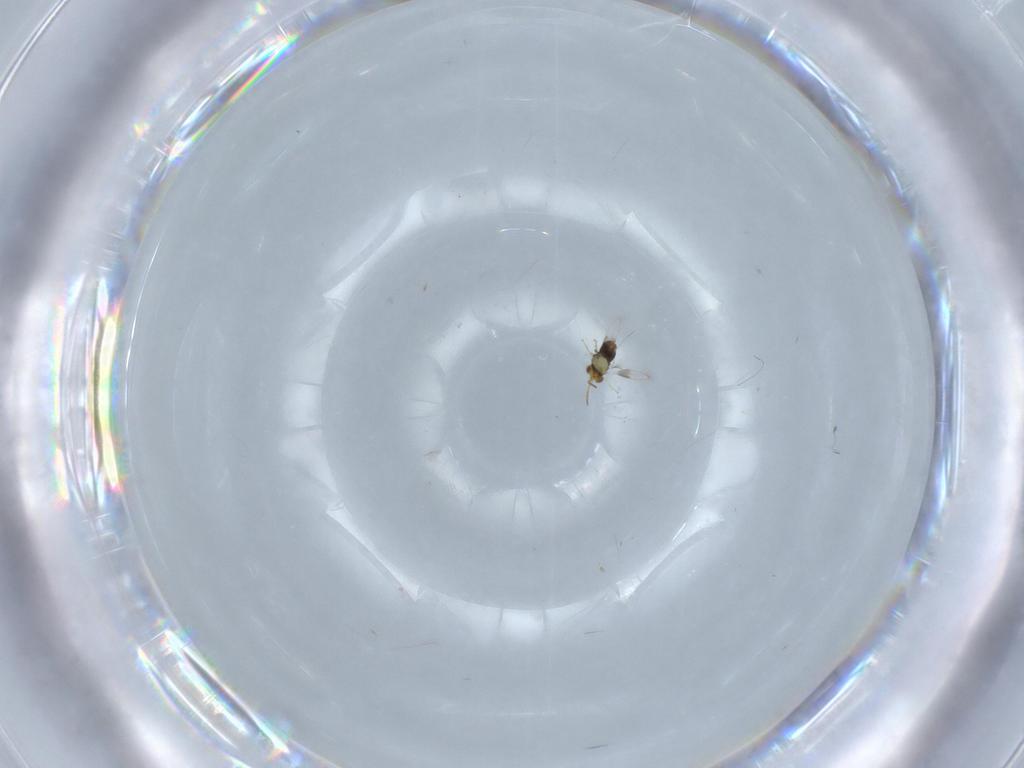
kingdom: Animalia
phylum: Arthropoda
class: Insecta
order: Hymenoptera
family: Aphelinidae
